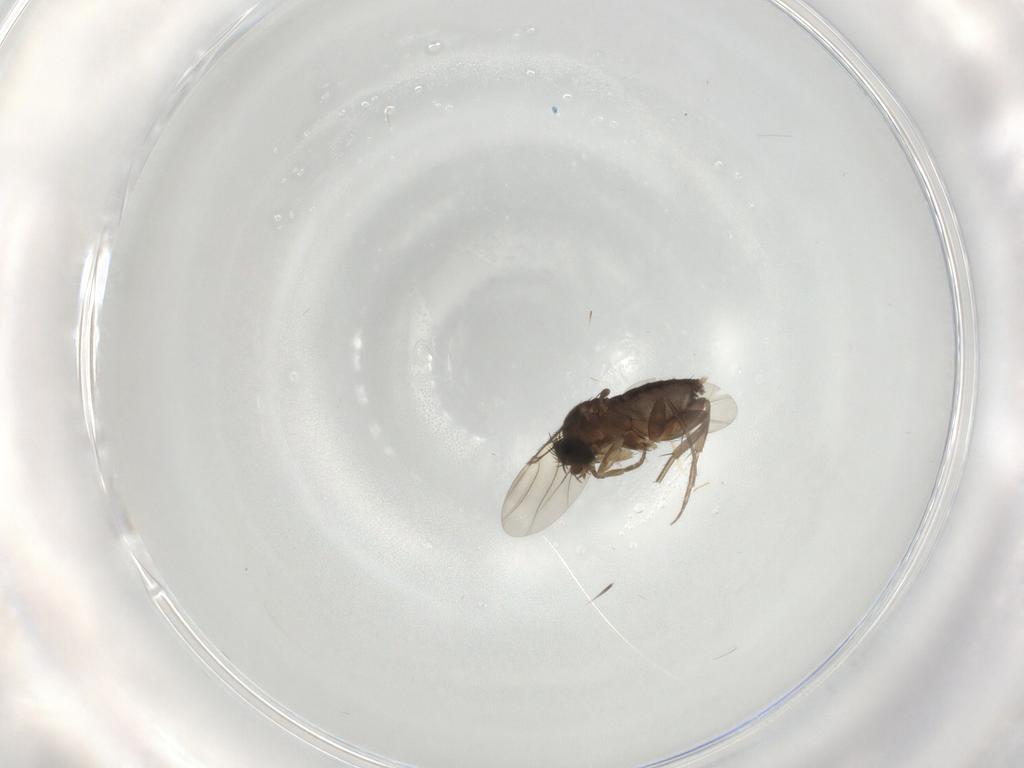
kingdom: Animalia
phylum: Arthropoda
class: Insecta
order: Diptera
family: Phoridae
